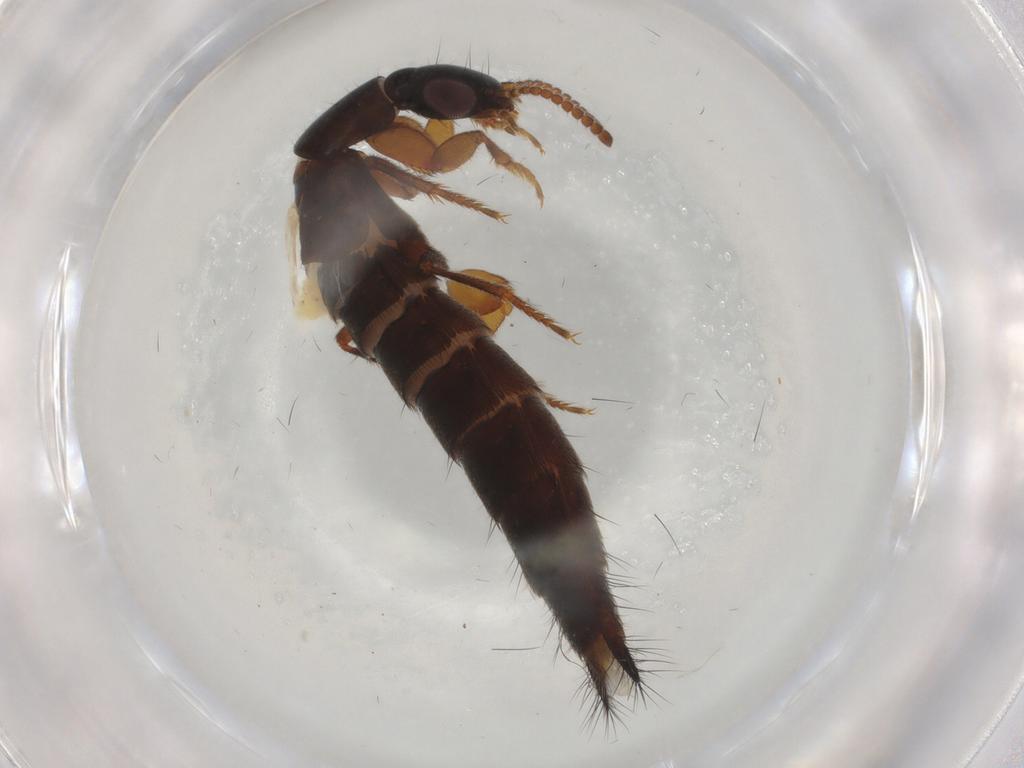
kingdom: Animalia
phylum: Arthropoda
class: Insecta
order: Coleoptera
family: Staphylinidae
